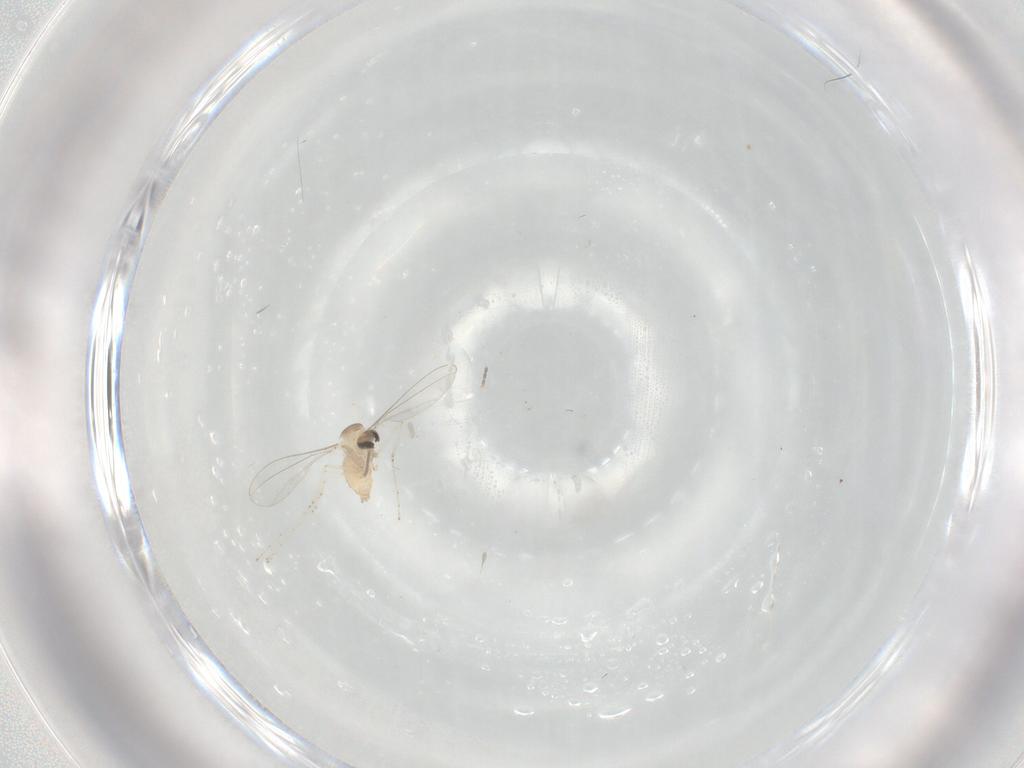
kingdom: Animalia
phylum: Arthropoda
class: Insecta
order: Diptera
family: Cecidomyiidae
